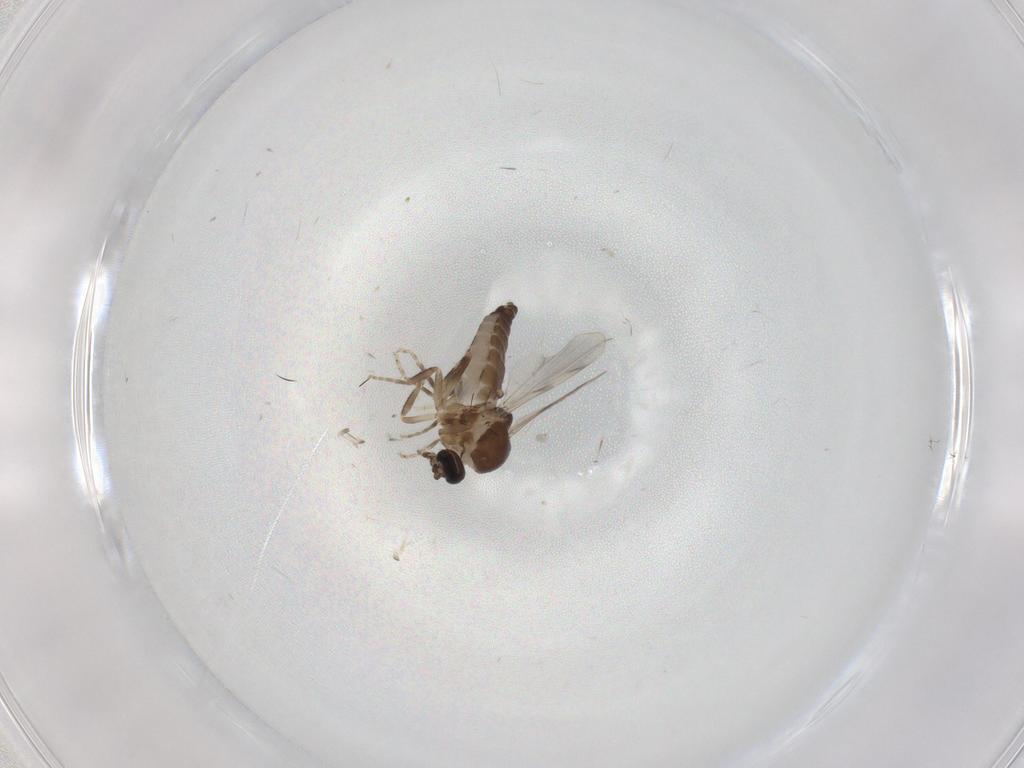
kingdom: Animalia
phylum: Arthropoda
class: Insecta
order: Diptera
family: Ceratopogonidae
